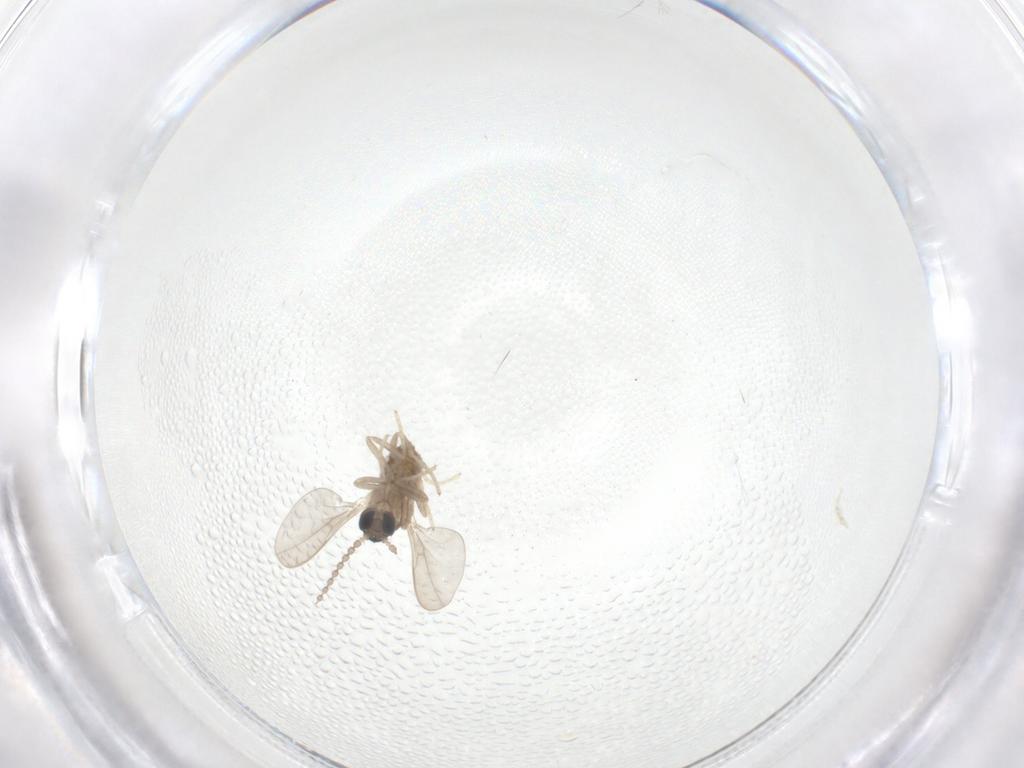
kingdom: Animalia
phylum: Arthropoda
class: Insecta
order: Diptera
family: Cecidomyiidae
